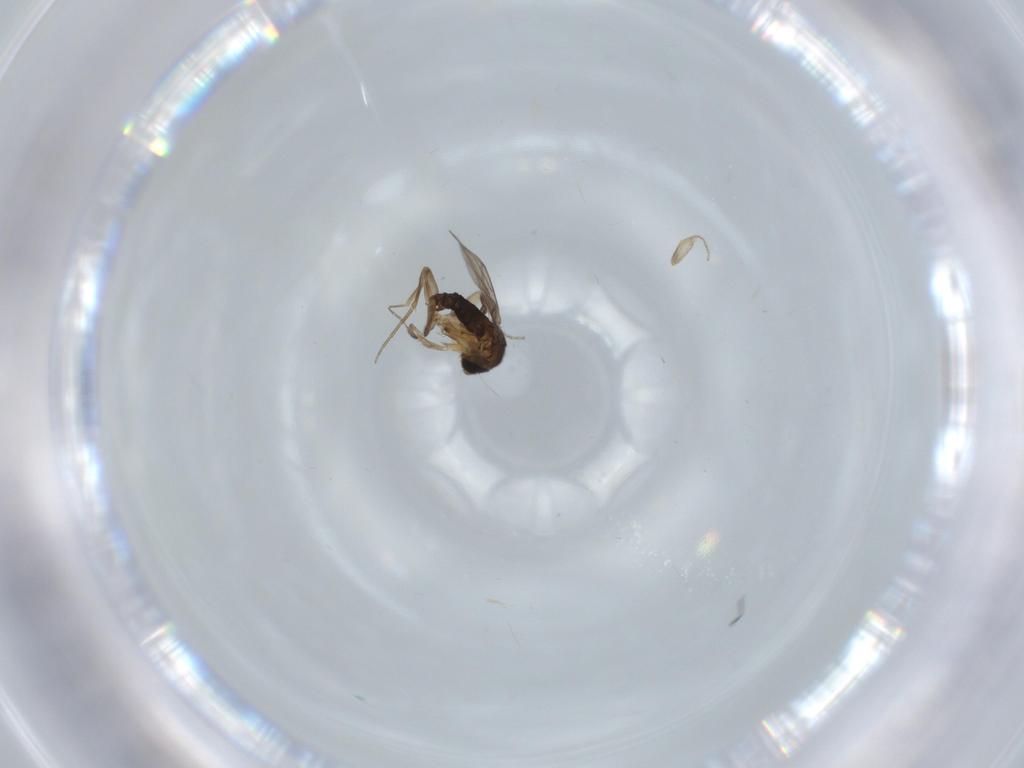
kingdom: Animalia
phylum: Arthropoda
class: Insecta
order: Diptera
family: Phoridae
